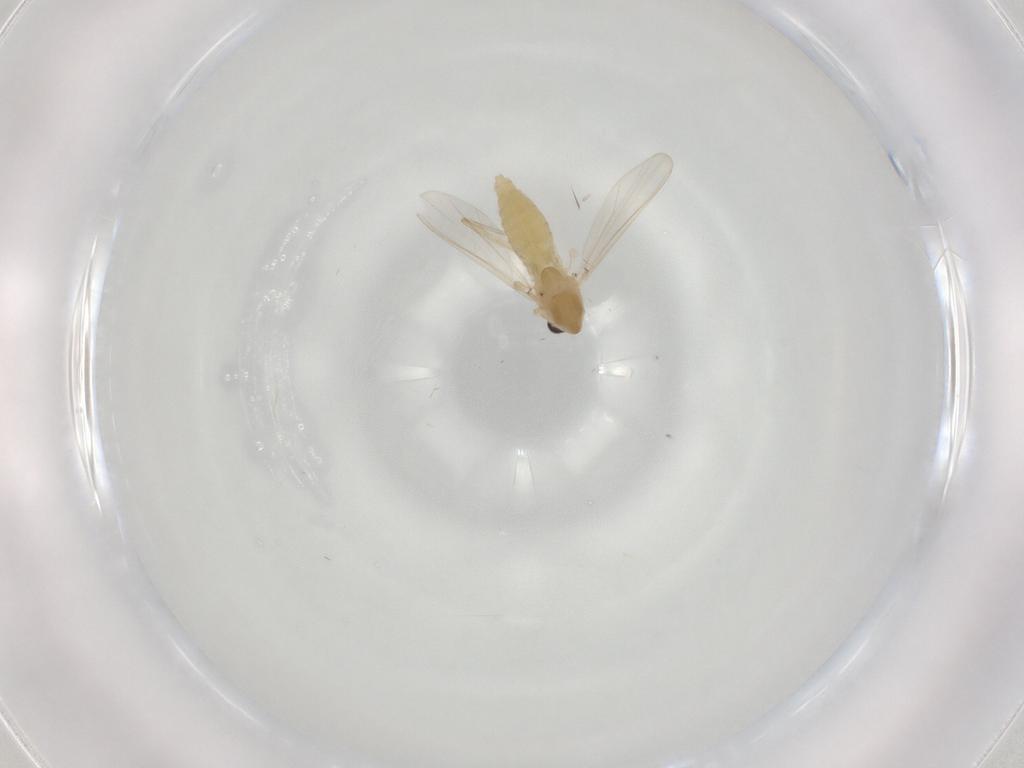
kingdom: Animalia
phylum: Arthropoda
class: Insecta
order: Diptera
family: Chironomidae
